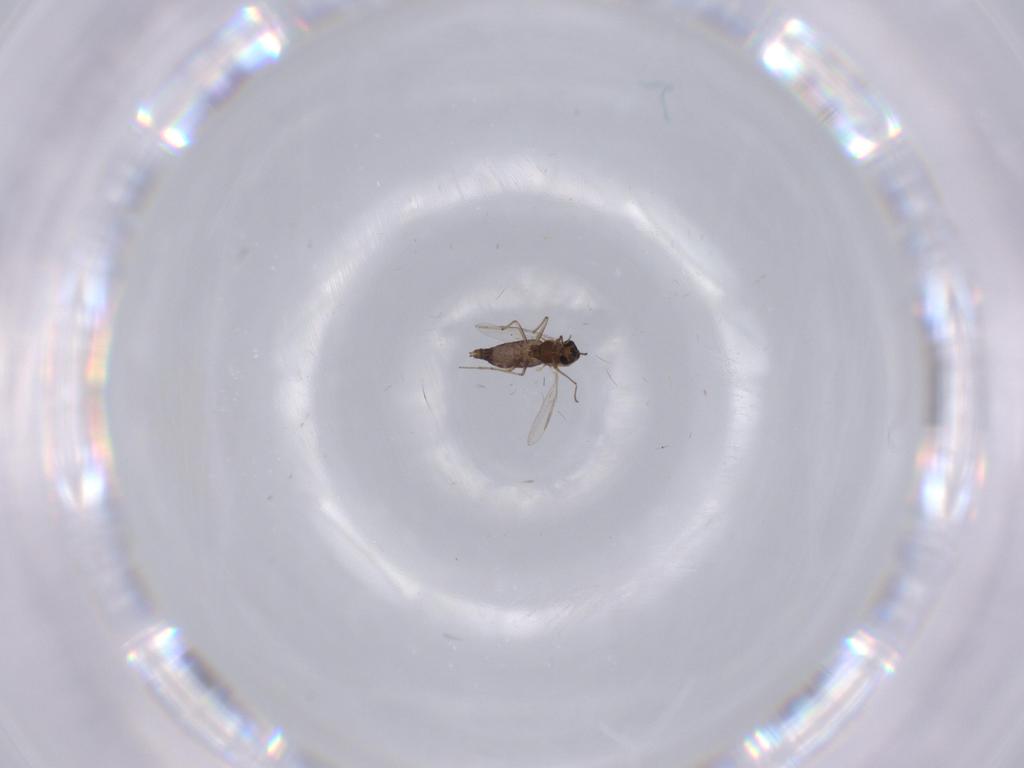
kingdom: Animalia
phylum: Arthropoda
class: Insecta
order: Diptera
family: Chironomidae
